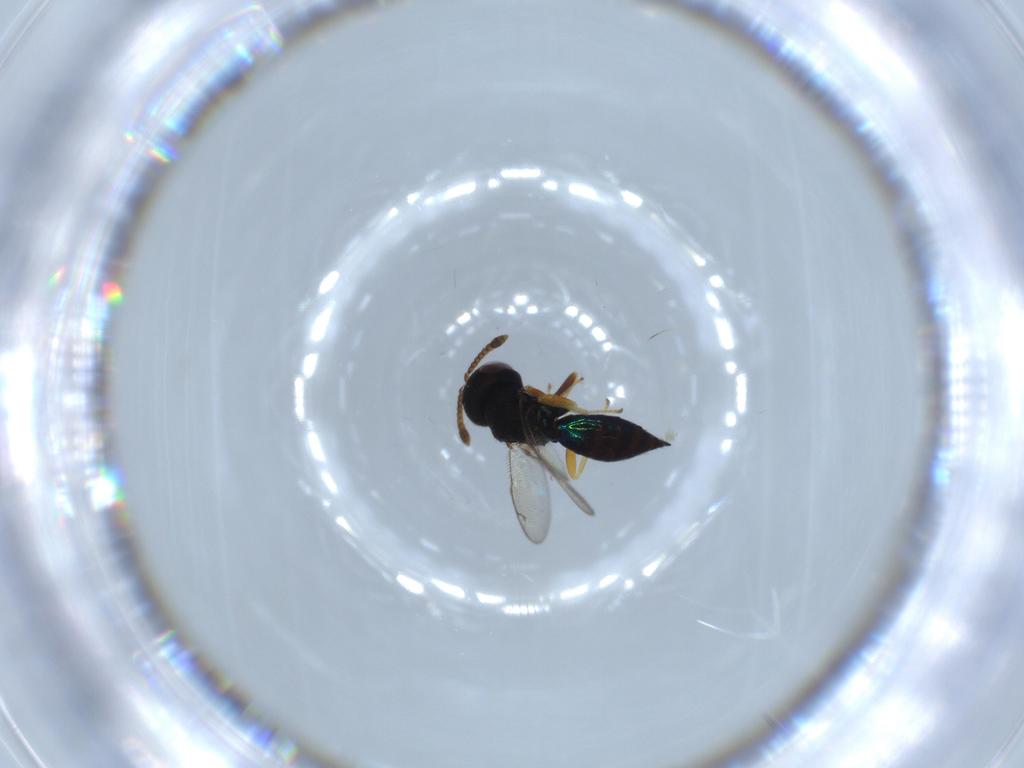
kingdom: Animalia
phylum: Arthropoda
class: Insecta
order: Hymenoptera
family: Pteromalidae
